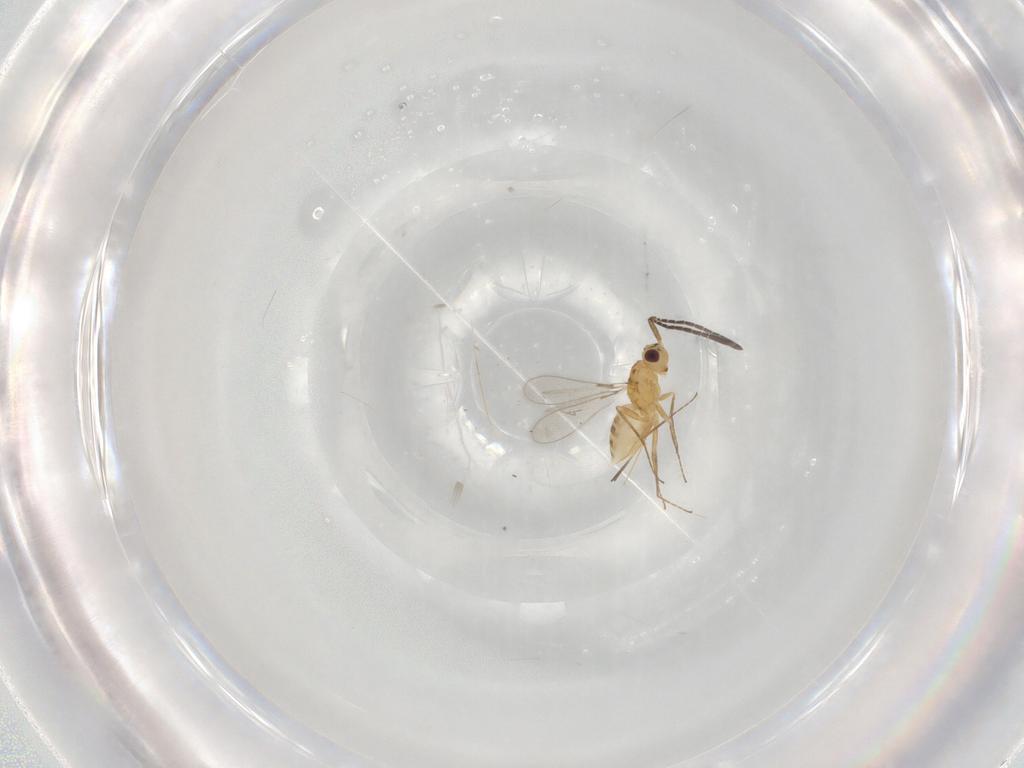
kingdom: Animalia
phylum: Arthropoda
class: Insecta
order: Hymenoptera
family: Mymaridae
